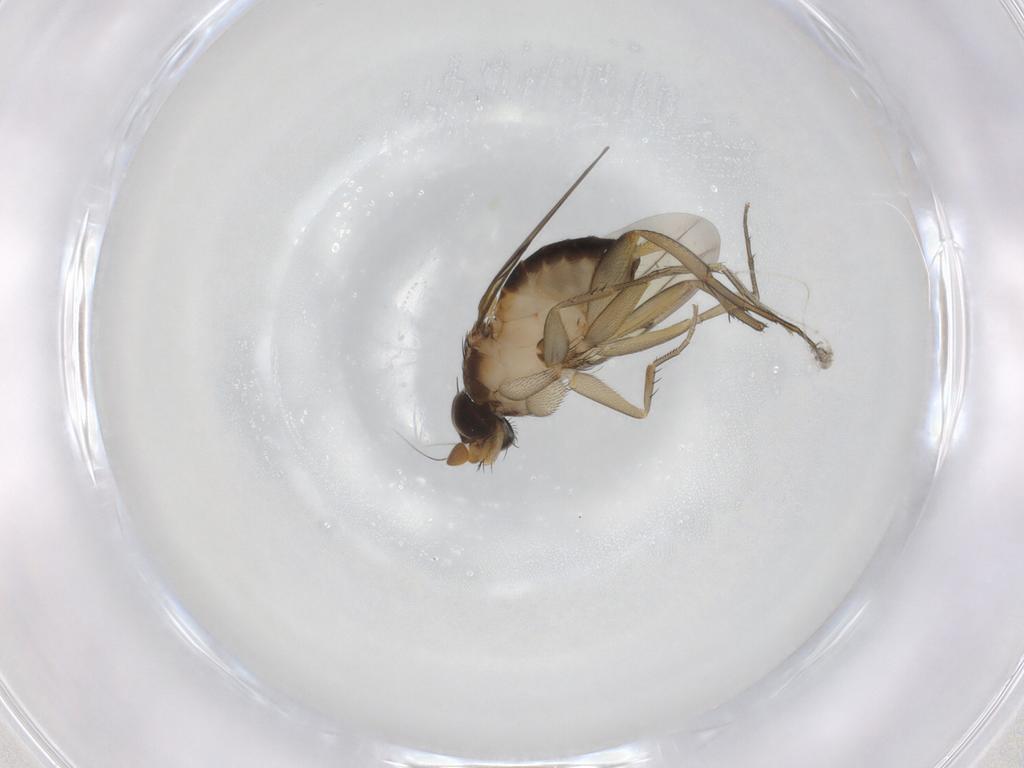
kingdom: Animalia
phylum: Arthropoda
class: Insecta
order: Diptera
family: Phoridae
